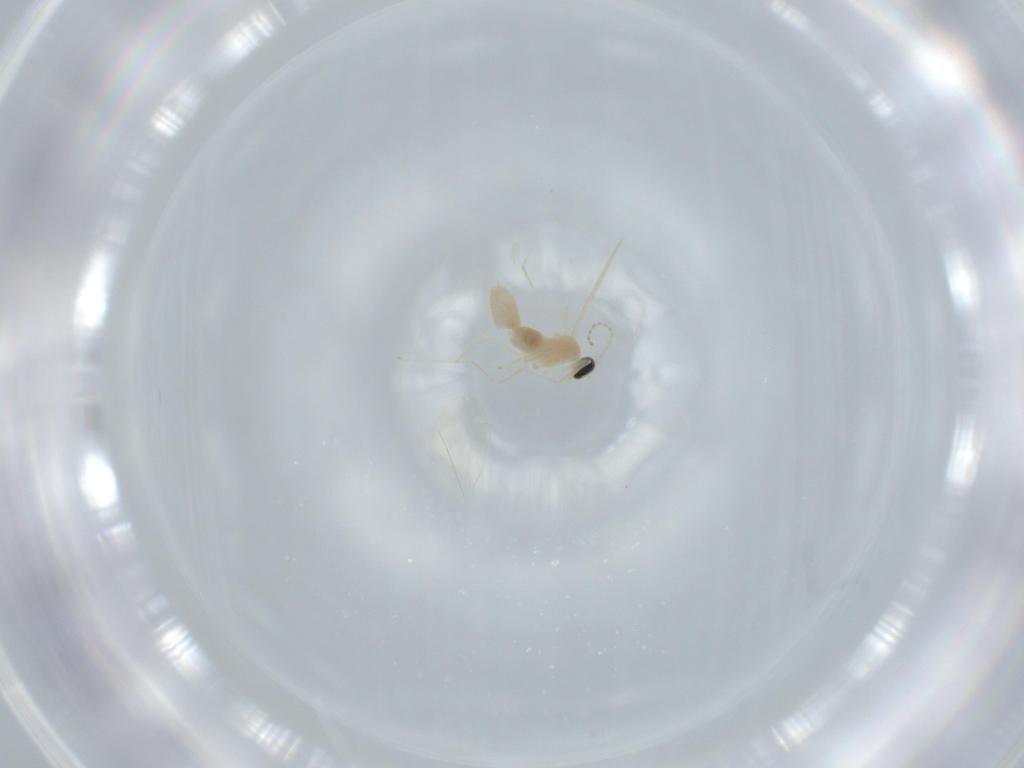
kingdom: Animalia
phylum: Arthropoda
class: Insecta
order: Diptera
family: Cecidomyiidae
